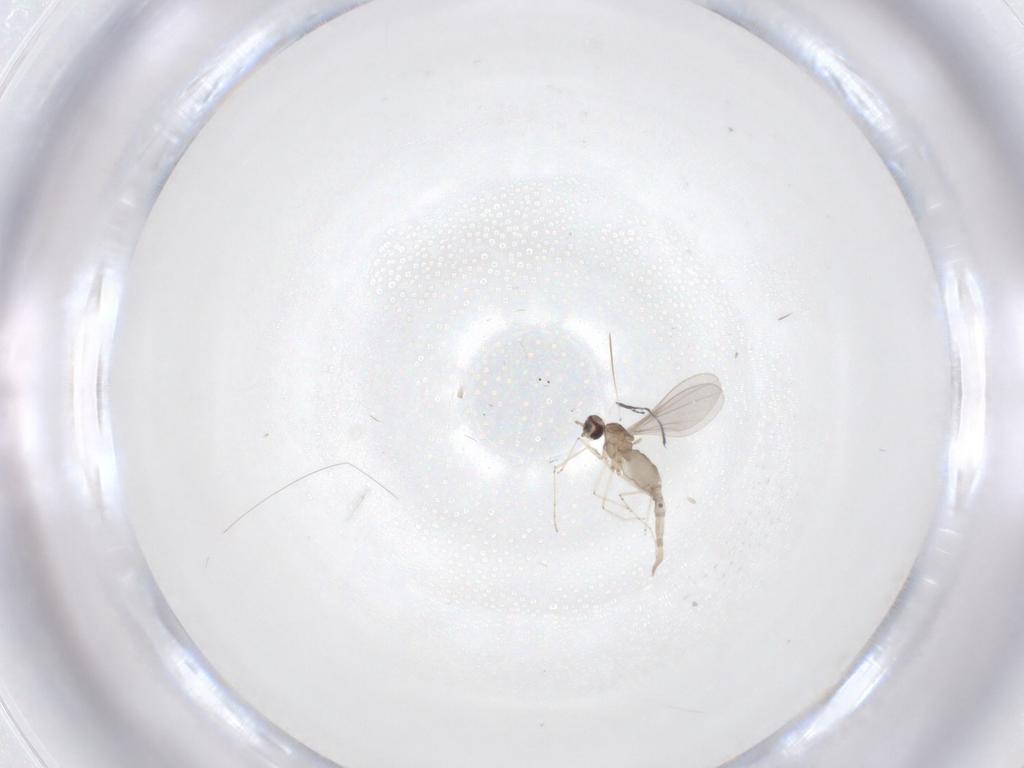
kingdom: Animalia
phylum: Arthropoda
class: Insecta
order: Diptera
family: Cecidomyiidae
